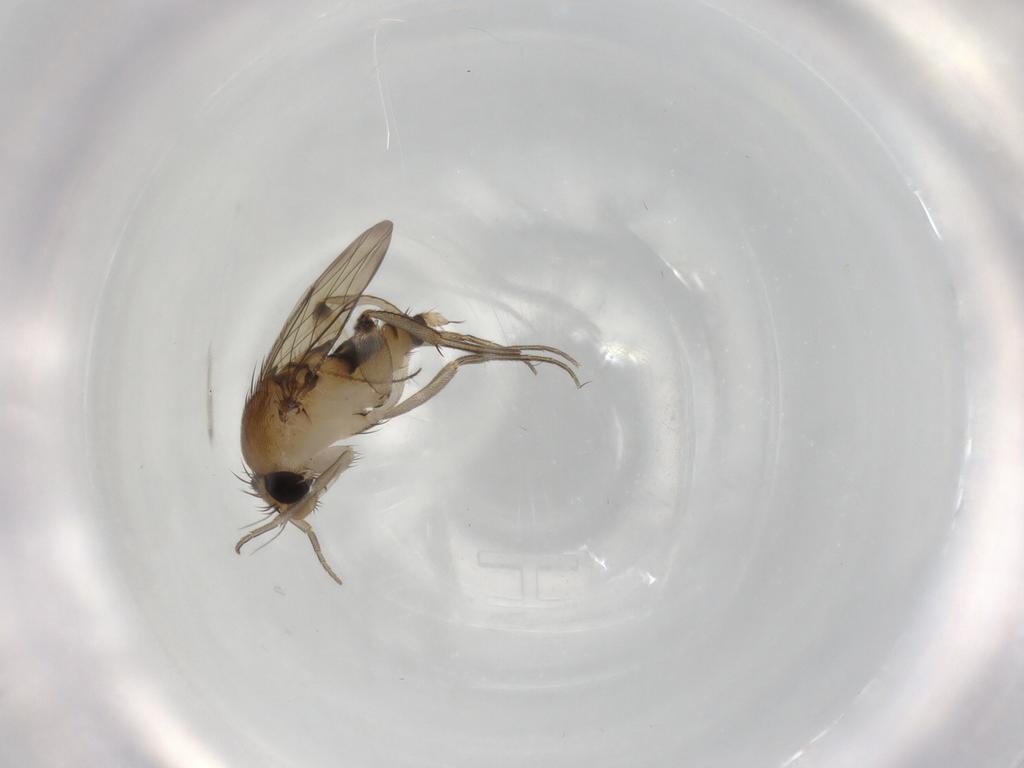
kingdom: Animalia
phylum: Arthropoda
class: Insecta
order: Diptera
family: Phoridae
